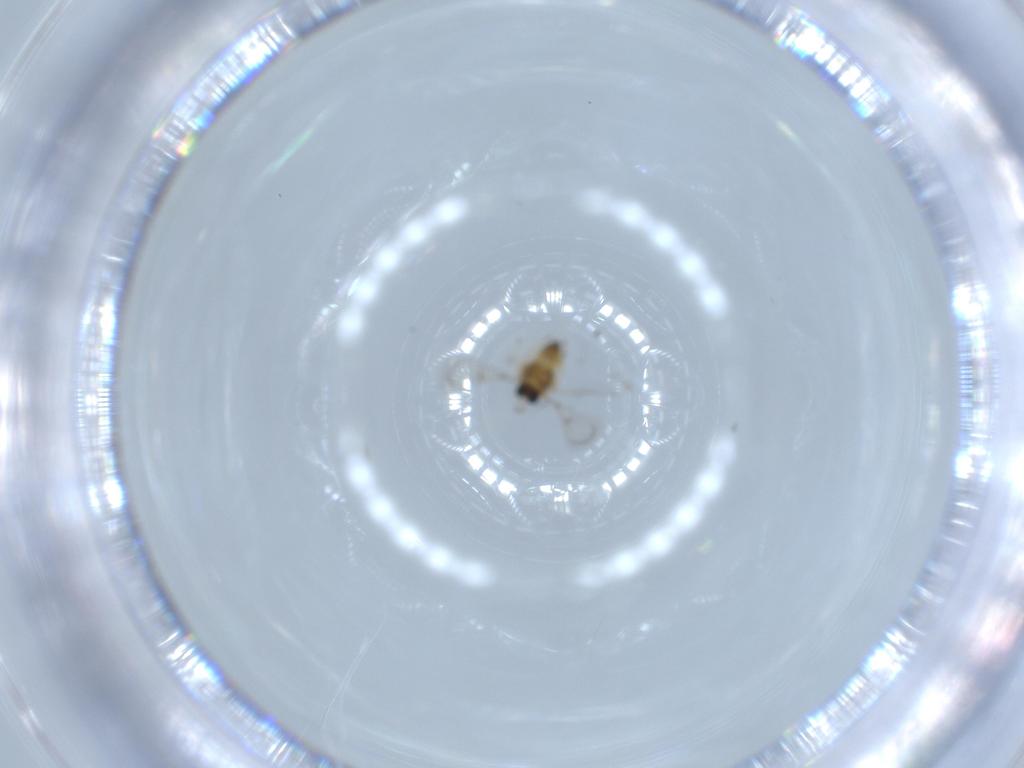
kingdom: Animalia
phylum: Arthropoda
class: Insecta
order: Hymenoptera
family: Trichogrammatidae
